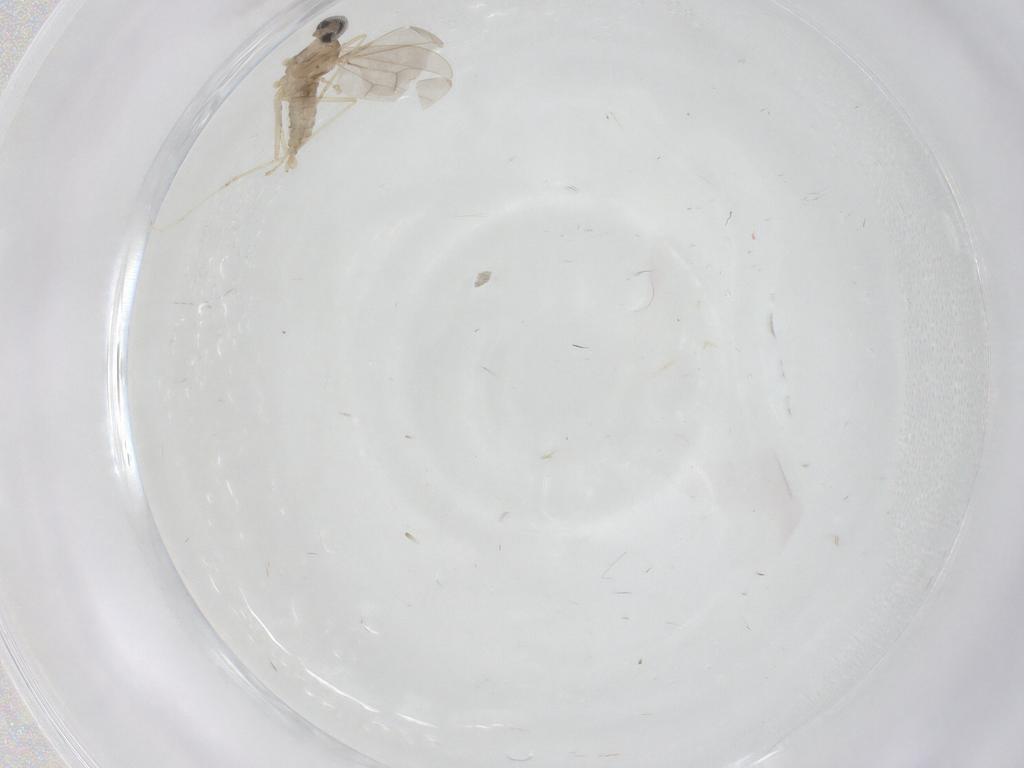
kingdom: Animalia
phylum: Arthropoda
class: Insecta
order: Diptera
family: Cecidomyiidae
